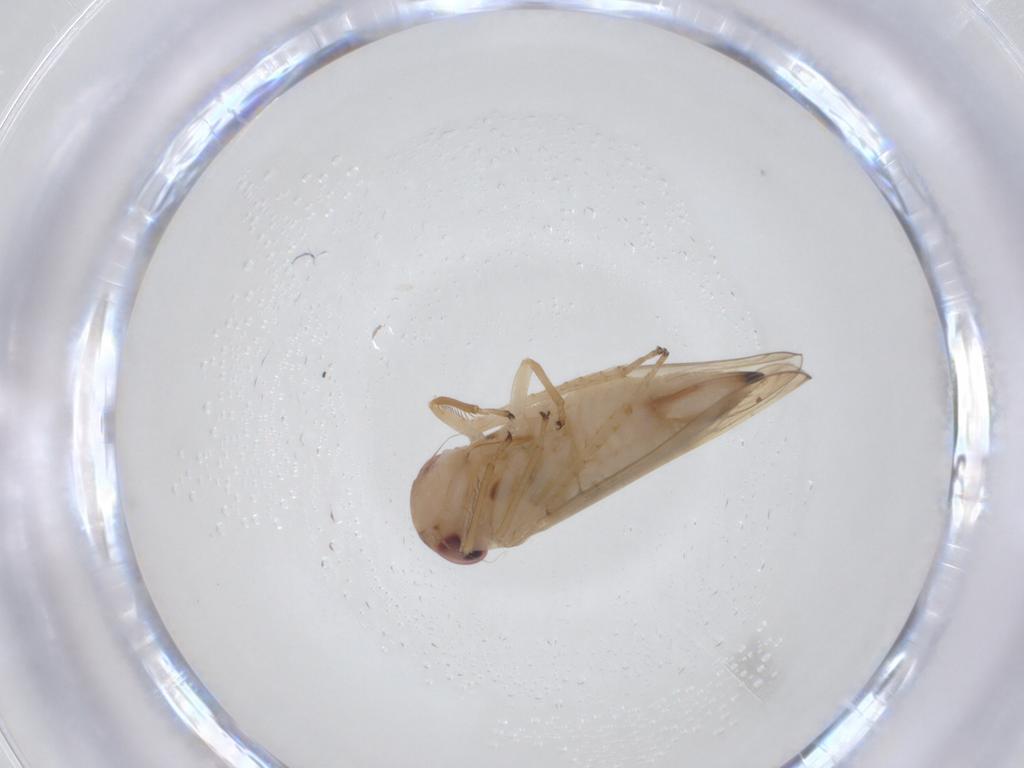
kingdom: Animalia
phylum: Arthropoda
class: Insecta
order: Hemiptera
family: Cicadellidae
